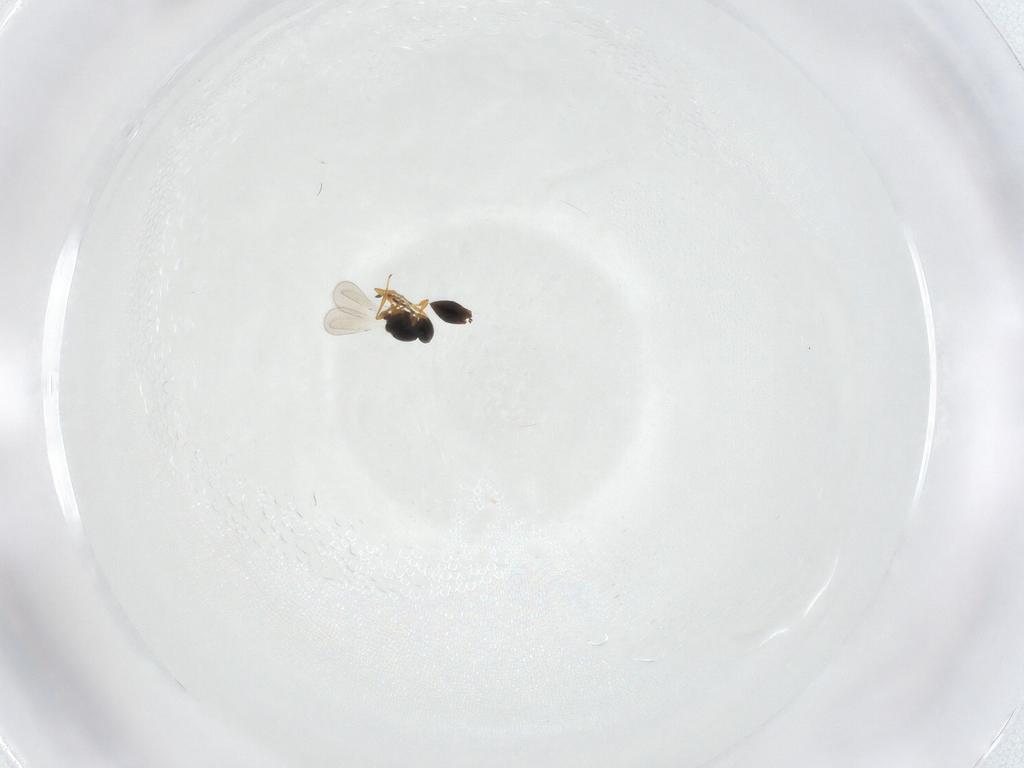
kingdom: Animalia
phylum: Arthropoda
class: Insecta
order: Hymenoptera
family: Platygastridae
